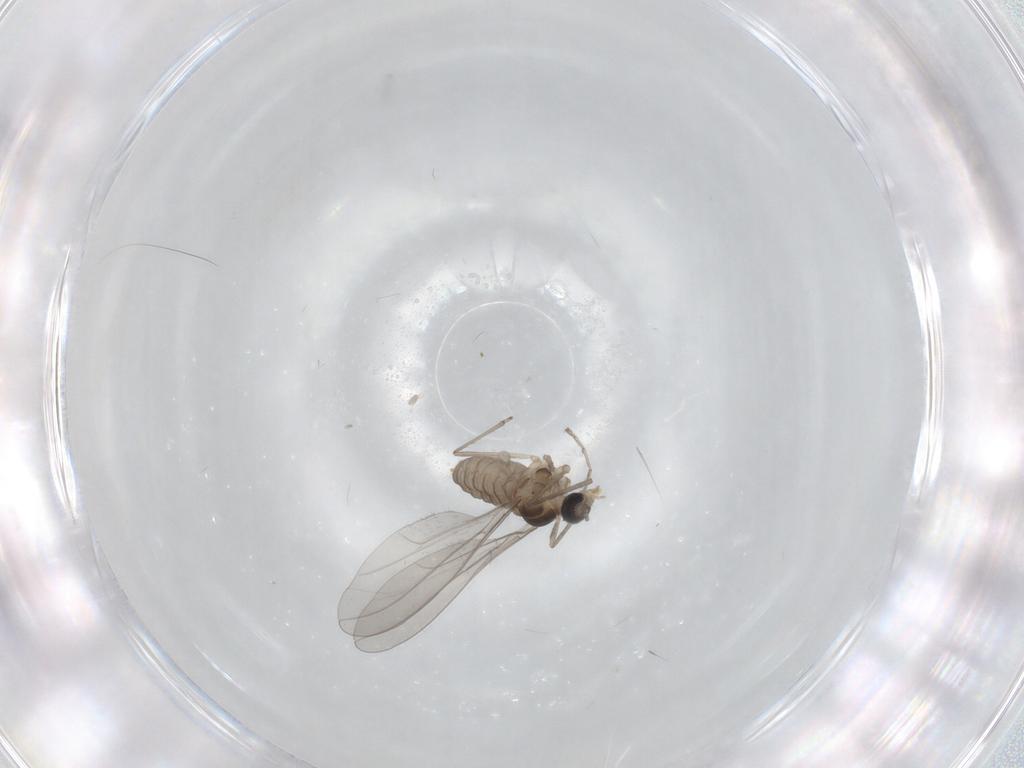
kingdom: Animalia
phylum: Arthropoda
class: Insecta
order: Diptera
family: Cecidomyiidae
